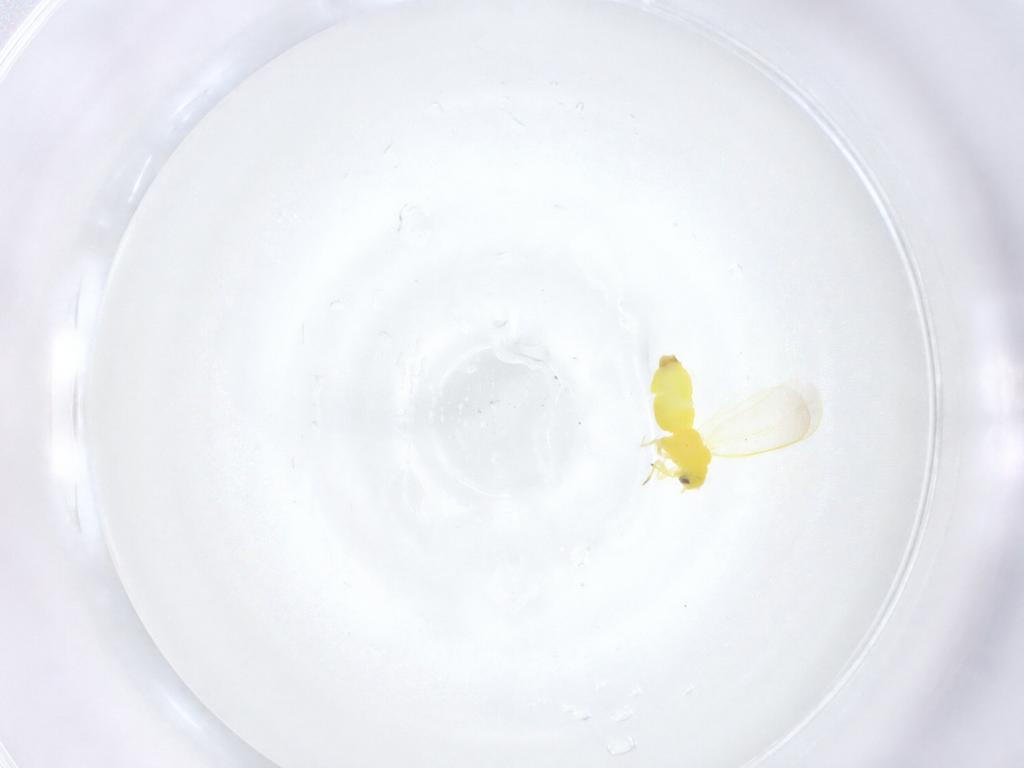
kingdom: Animalia
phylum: Arthropoda
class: Insecta
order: Hemiptera
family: Aleyrodidae
